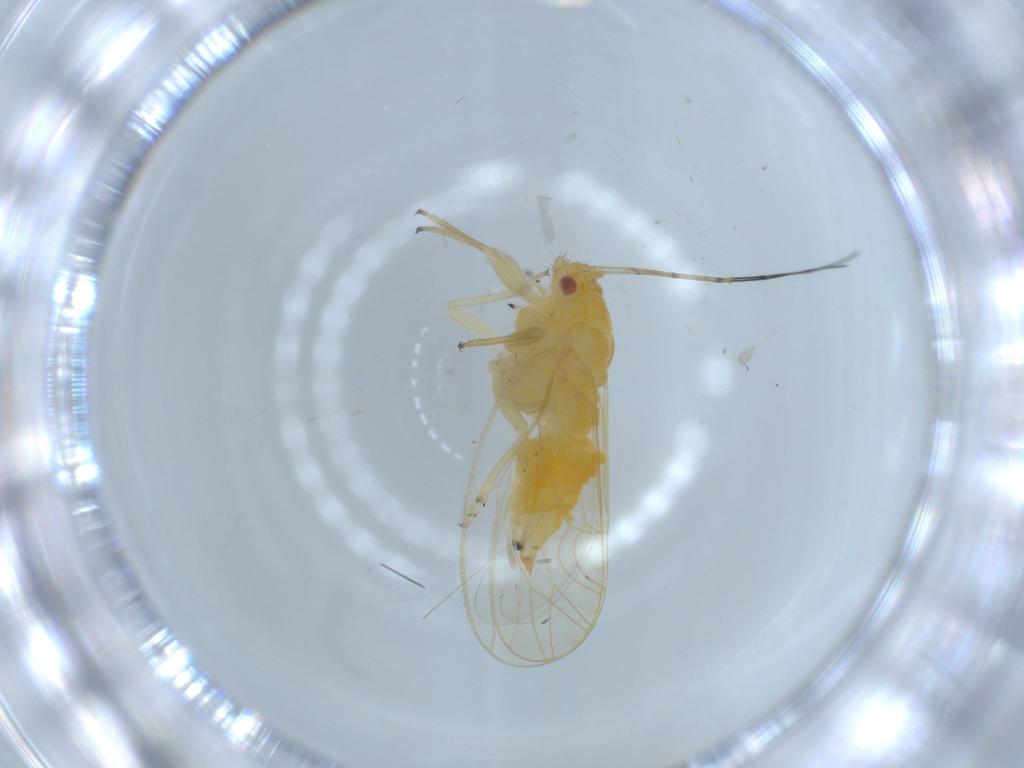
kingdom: Animalia
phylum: Arthropoda
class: Insecta
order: Hemiptera
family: Psyllidae
